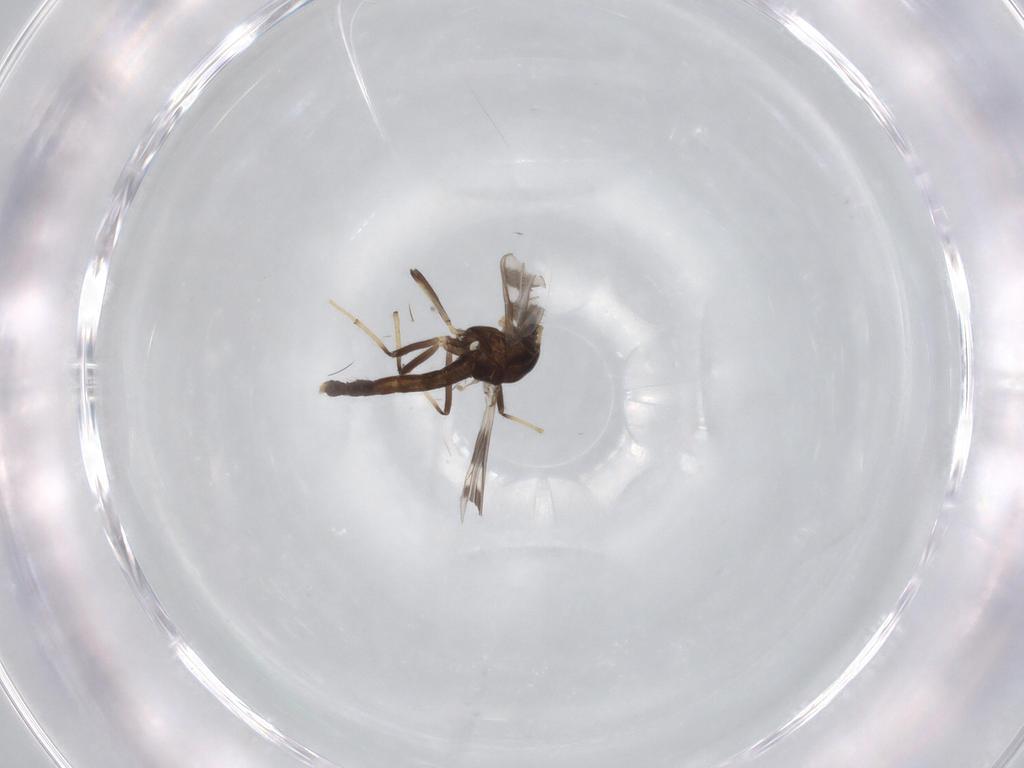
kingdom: Animalia
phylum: Arthropoda
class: Insecta
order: Diptera
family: Chironomidae
